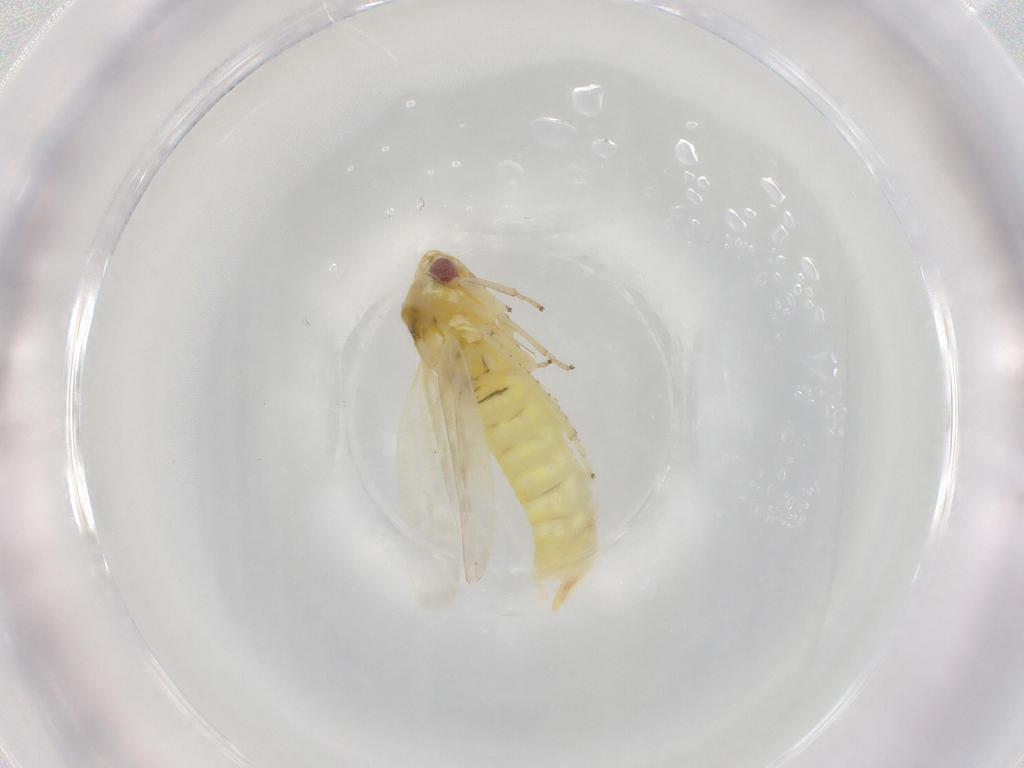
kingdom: Animalia
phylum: Arthropoda
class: Insecta
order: Hemiptera
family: Cicadellidae
